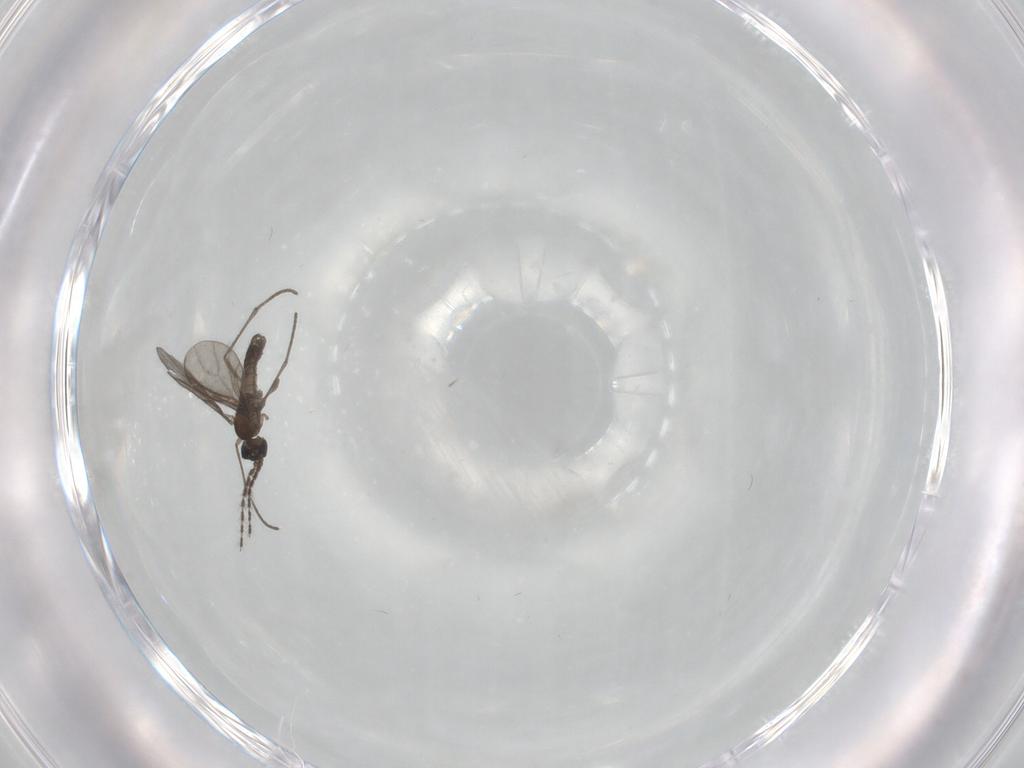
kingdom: Animalia
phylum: Arthropoda
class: Insecta
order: Diptera
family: Sciaridae
